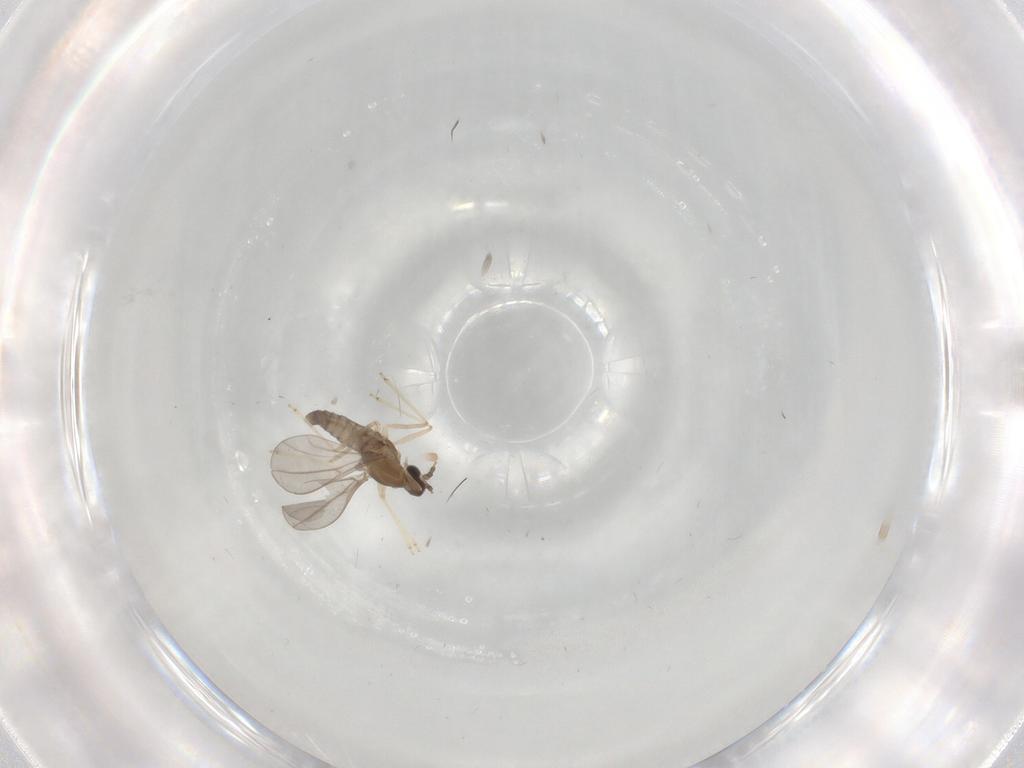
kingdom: Animalia
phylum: Arthropoda
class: Insecta
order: Diptera
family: Cecidomyiidae
